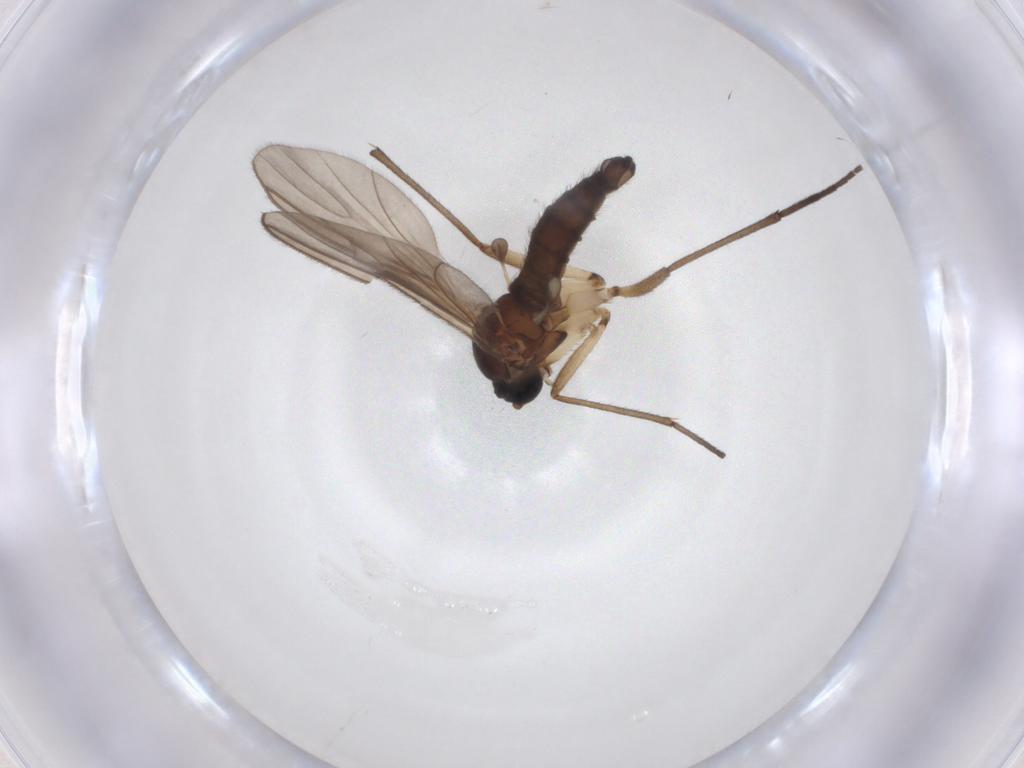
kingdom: Animalia
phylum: Arthropoda
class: Insecta
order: Diptera
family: Sciaridae
